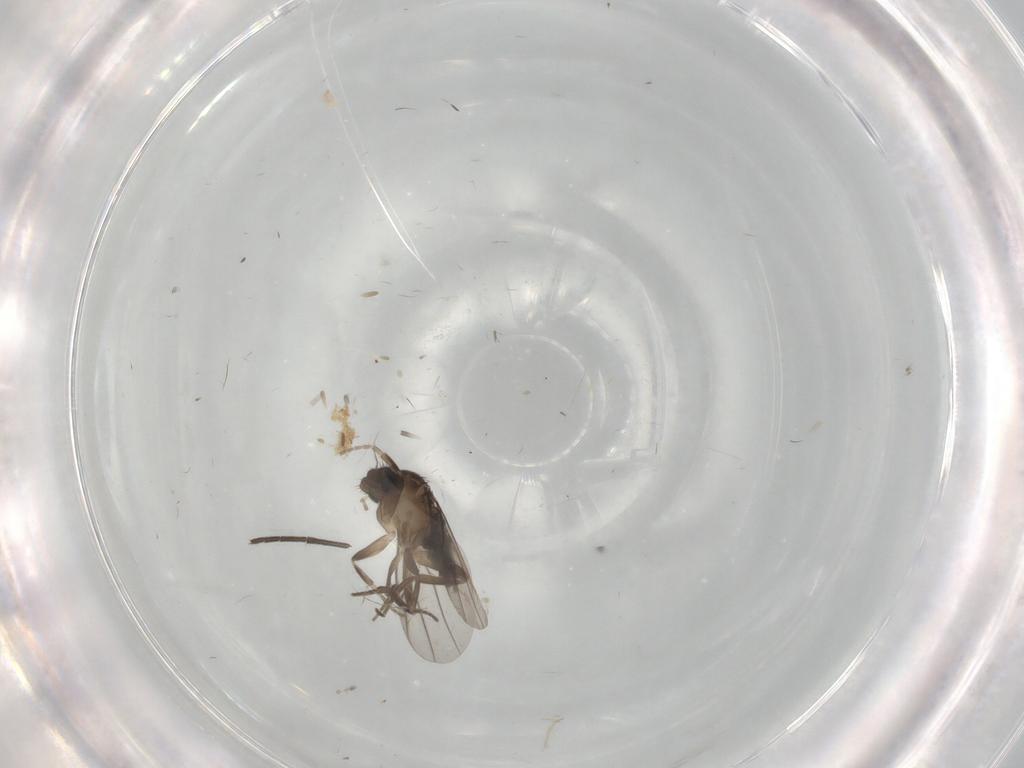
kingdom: Animalia
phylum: Arthropoda
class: Insecta
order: Diptera
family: Ceratopogonidae
